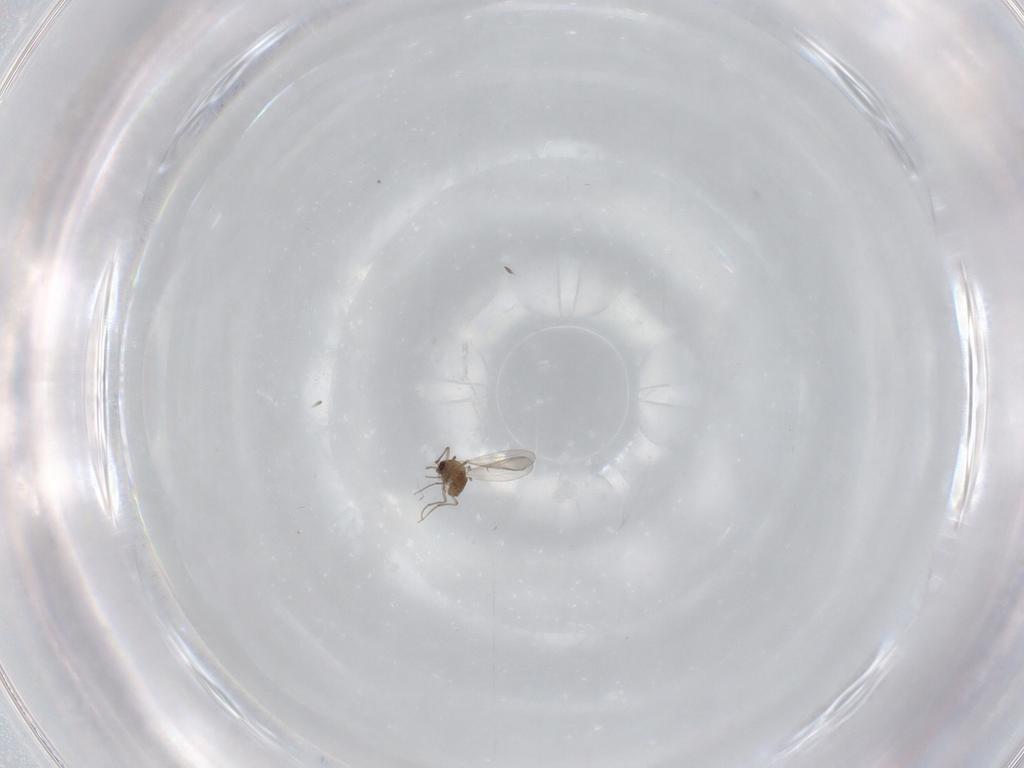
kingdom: Animalia
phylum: Arthropoda
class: Insecta
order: Diptera
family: Chironomidae
